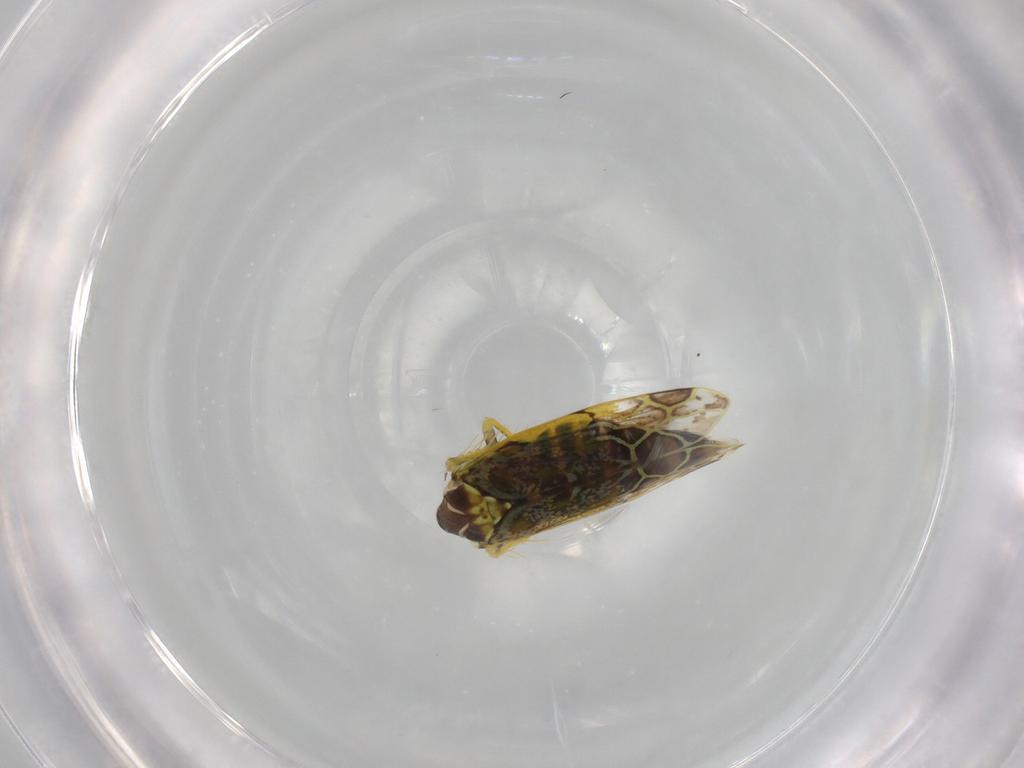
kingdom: Animalia
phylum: Arthropoda
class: Insecta
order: Hemiptera
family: Cicadellidae
